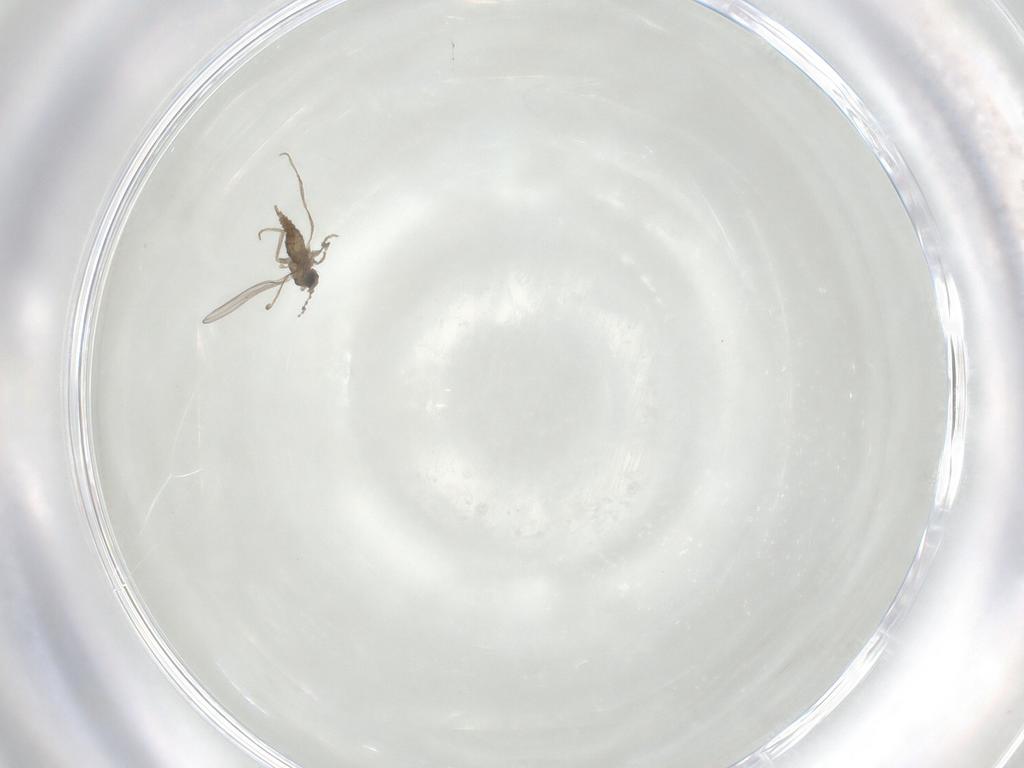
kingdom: Animalia
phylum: Arthropoda
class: Insecta
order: Diptera
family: Cecidomyiidae
